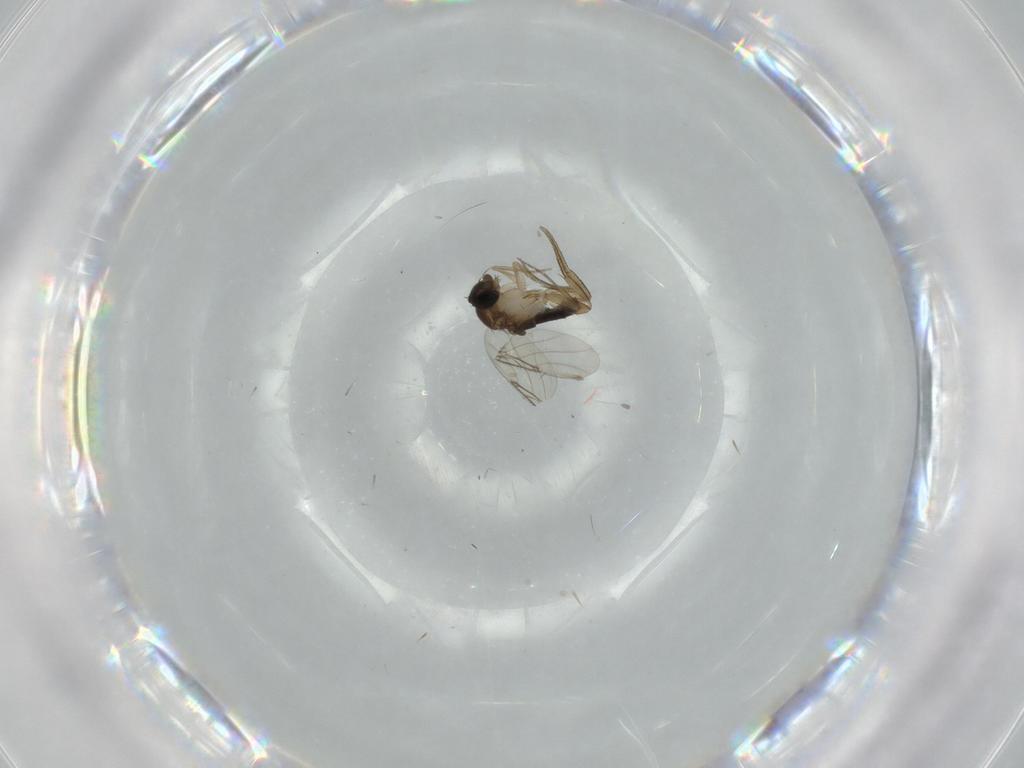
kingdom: Animalia
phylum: Arthropoda
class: Insecta
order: Diptera
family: Phoridae
